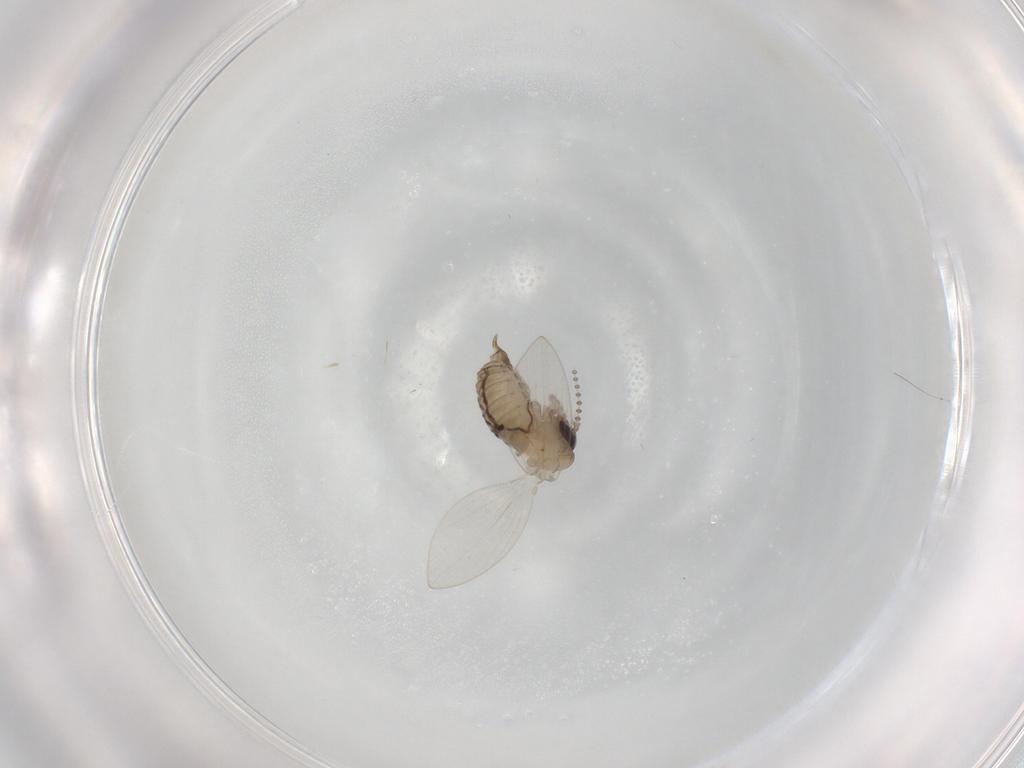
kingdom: Animalia
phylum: Arthropoda
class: Insecta
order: Diptera
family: Psychodidae
